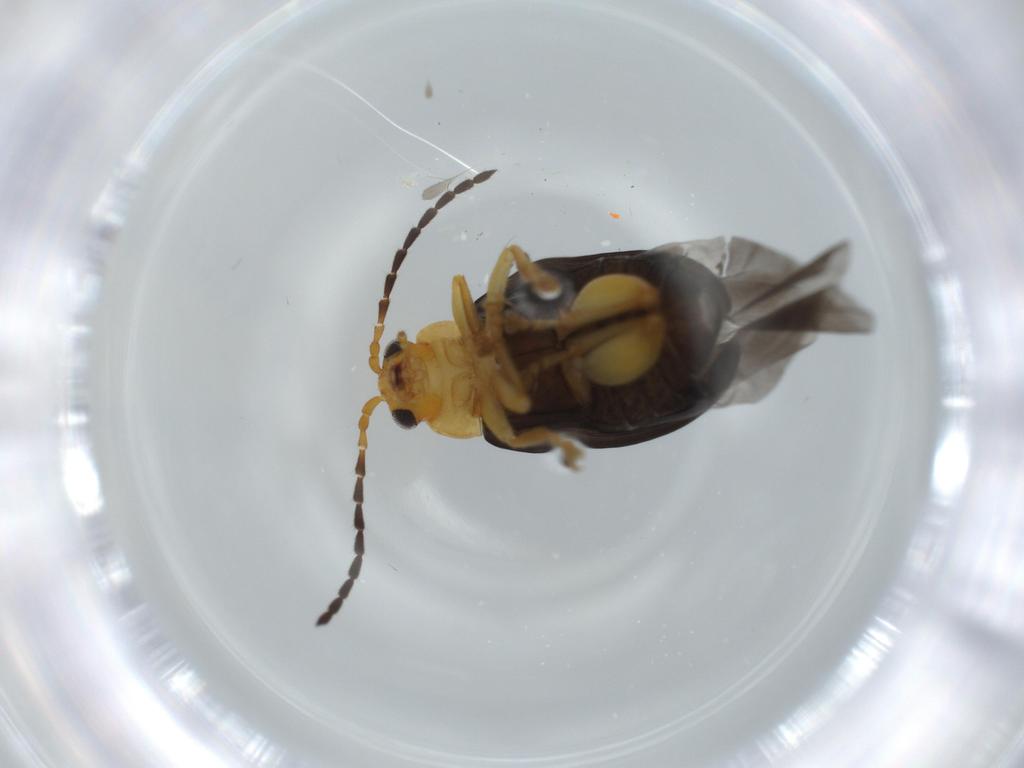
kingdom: Animalia
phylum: Arthropoda
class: Insecta
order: Coleoptera
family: Chrysomelidae
